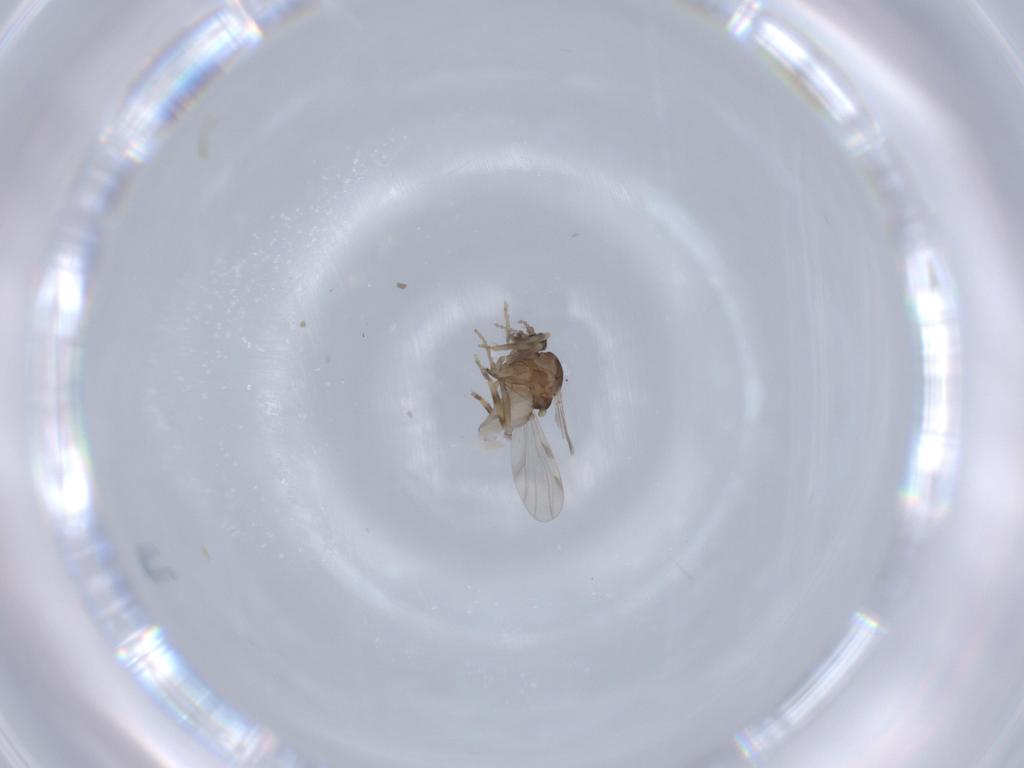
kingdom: Animalia
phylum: Arthropoda
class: Insecta
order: Diptera
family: Ceratopogonidae
